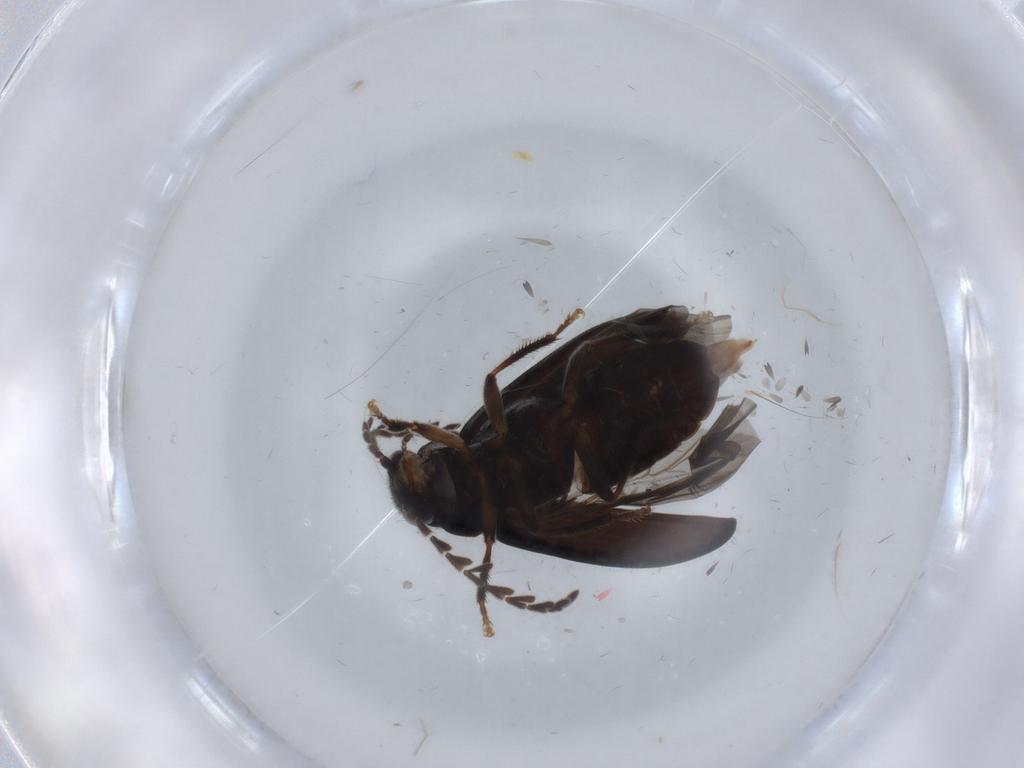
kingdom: Animalia
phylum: Arthropoda
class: Insecta
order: Coleoptera
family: Ptilodactylidae
